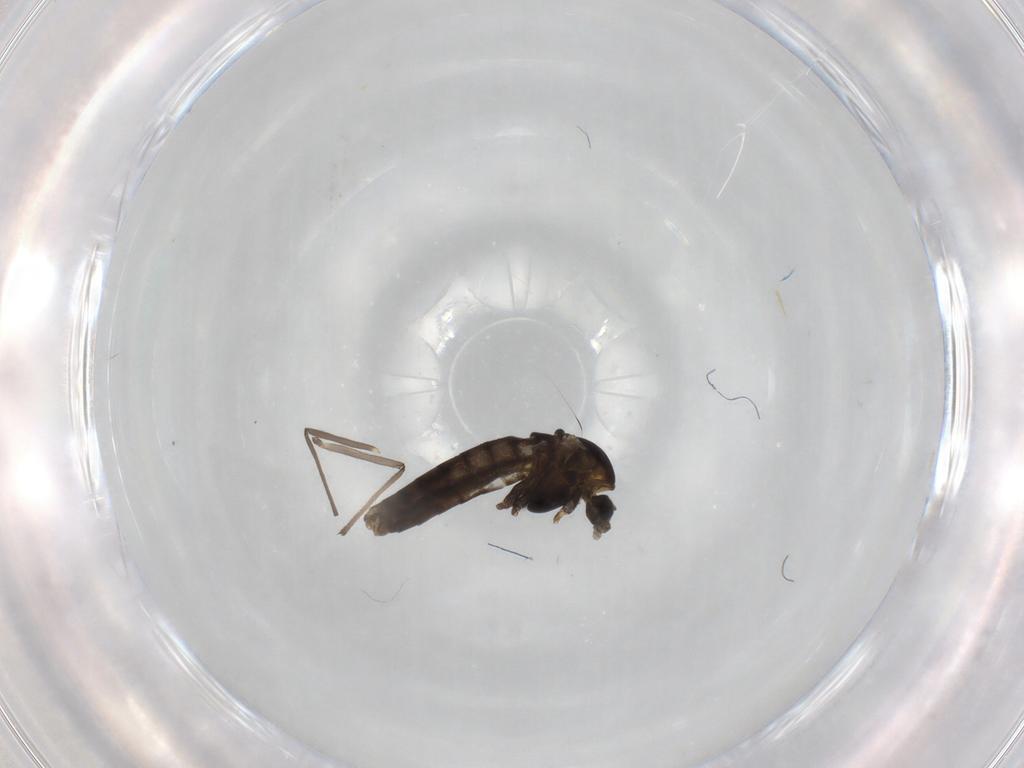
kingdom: Animalia
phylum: Arthropoda
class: Insecta
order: Diptera
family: Chironomidae
